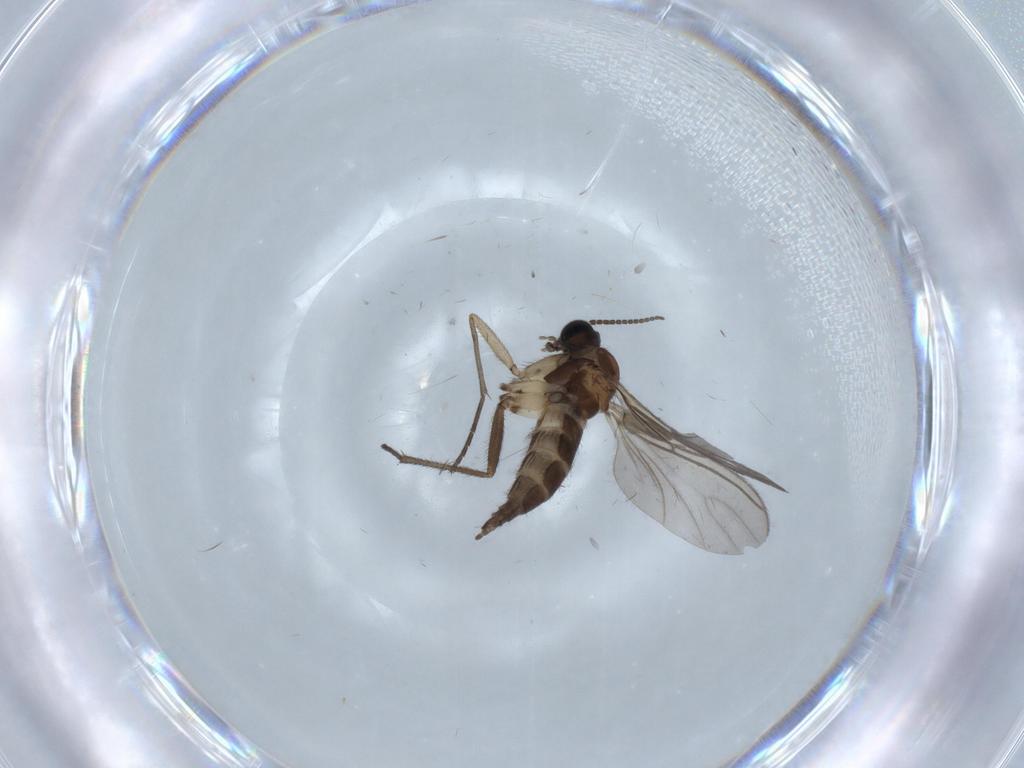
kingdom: Animalia
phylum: Arthropoda
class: Insecta
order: Diptera
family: Sciaridae
